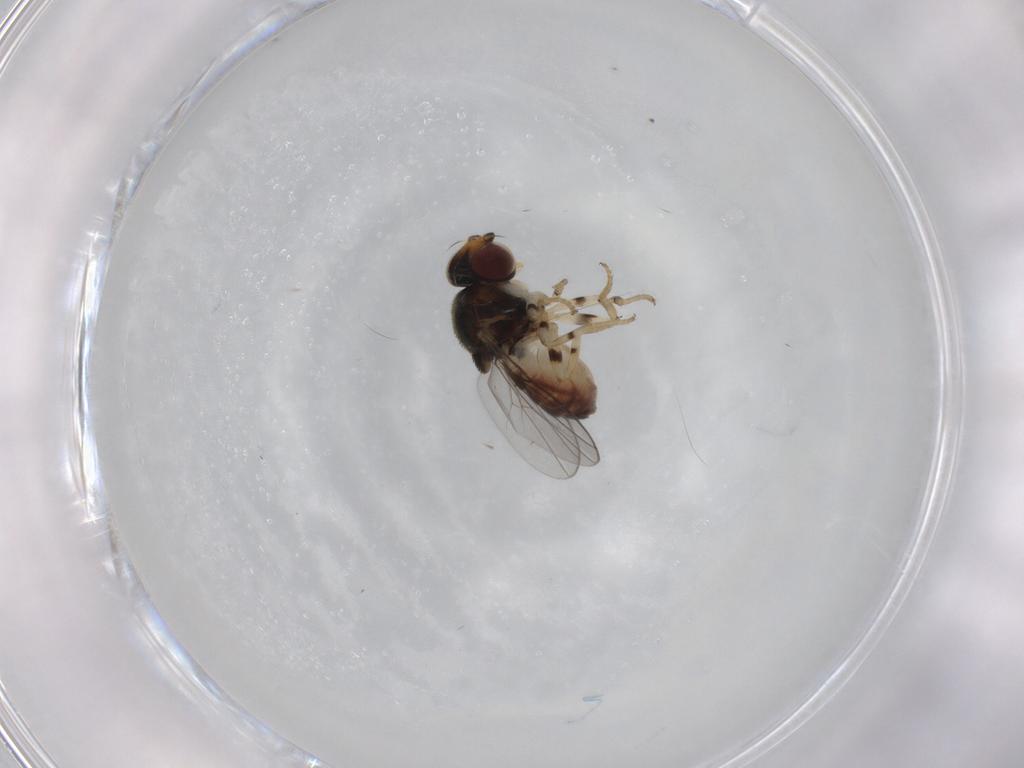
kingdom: Animalia
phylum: Arthropoda
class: Insecta
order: Diptera
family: Chloropidae
